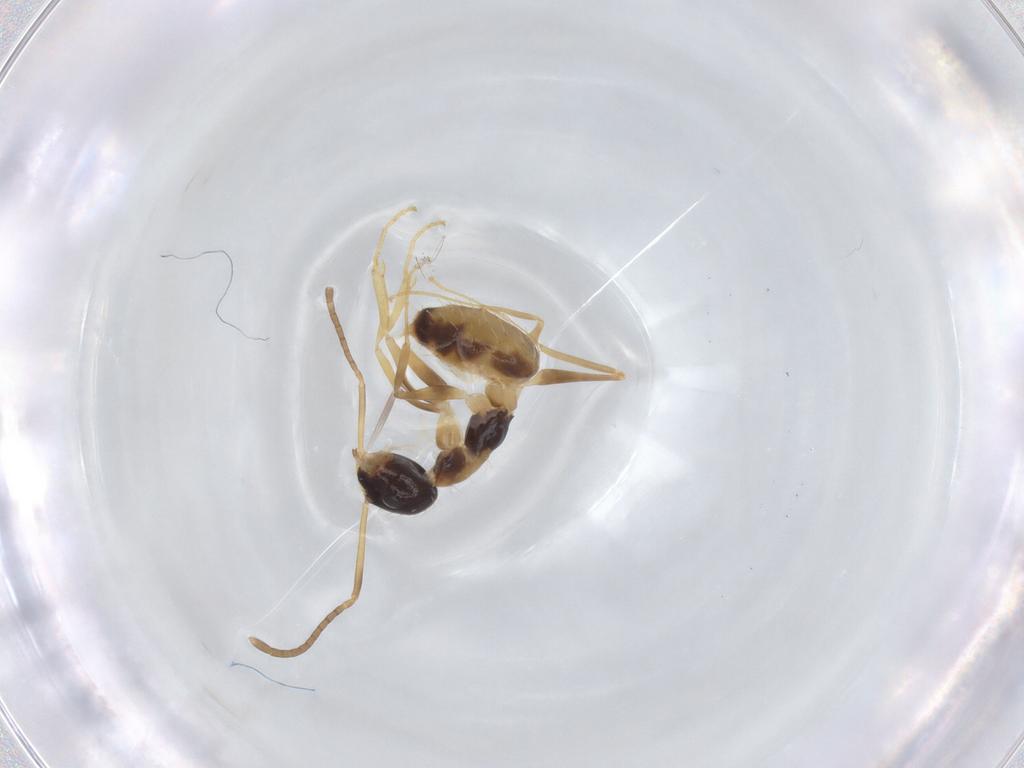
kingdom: Animalia
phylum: Arthropoda
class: Insecta
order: Hymenoptera
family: Formicidae
